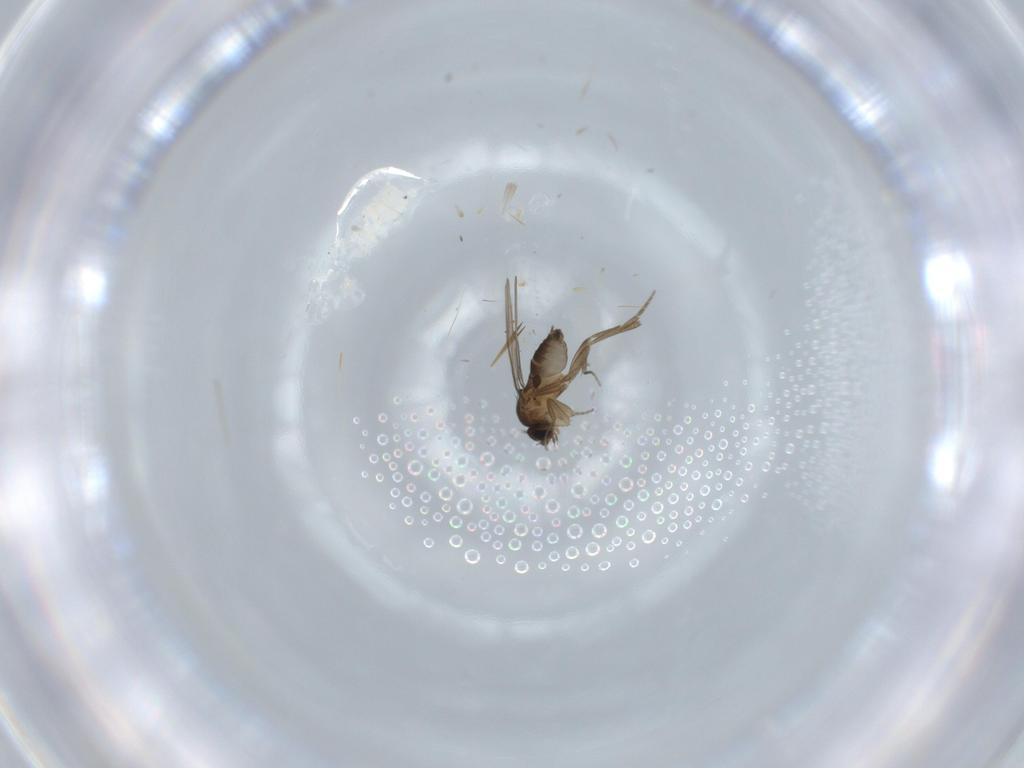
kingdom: Animalia
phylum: Arthropoda
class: Insecta
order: Diptera
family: Phoridae
